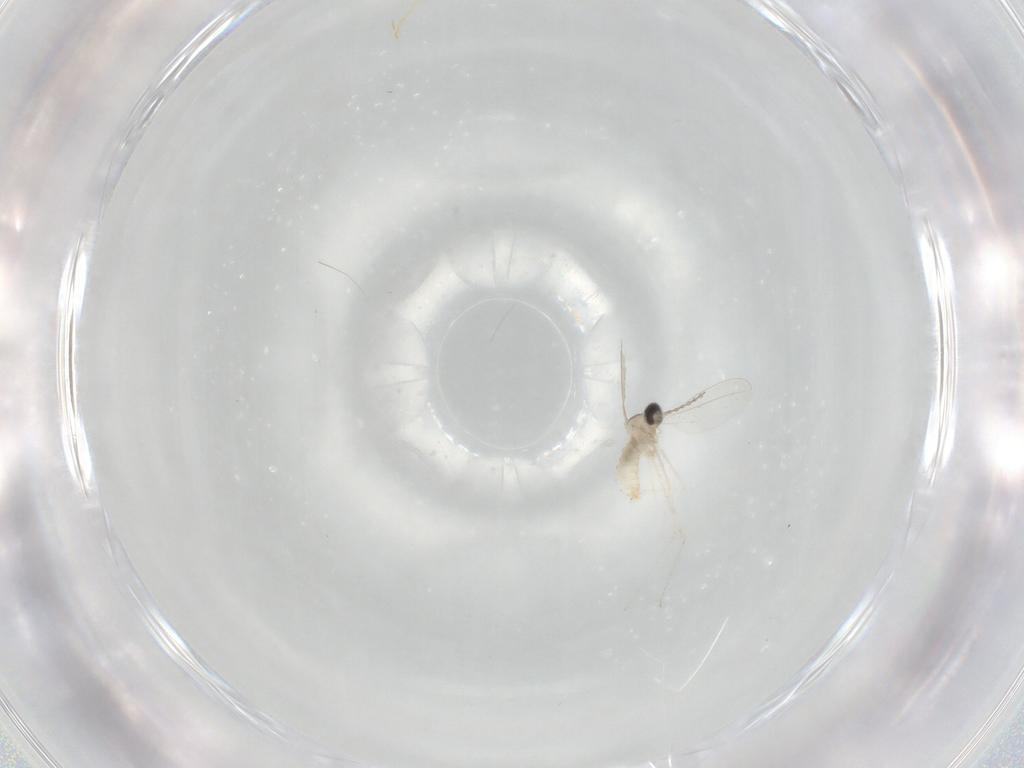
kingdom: Animalia
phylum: Arthropoda
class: Insecta
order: Diptera
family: Cecidomyiidae
